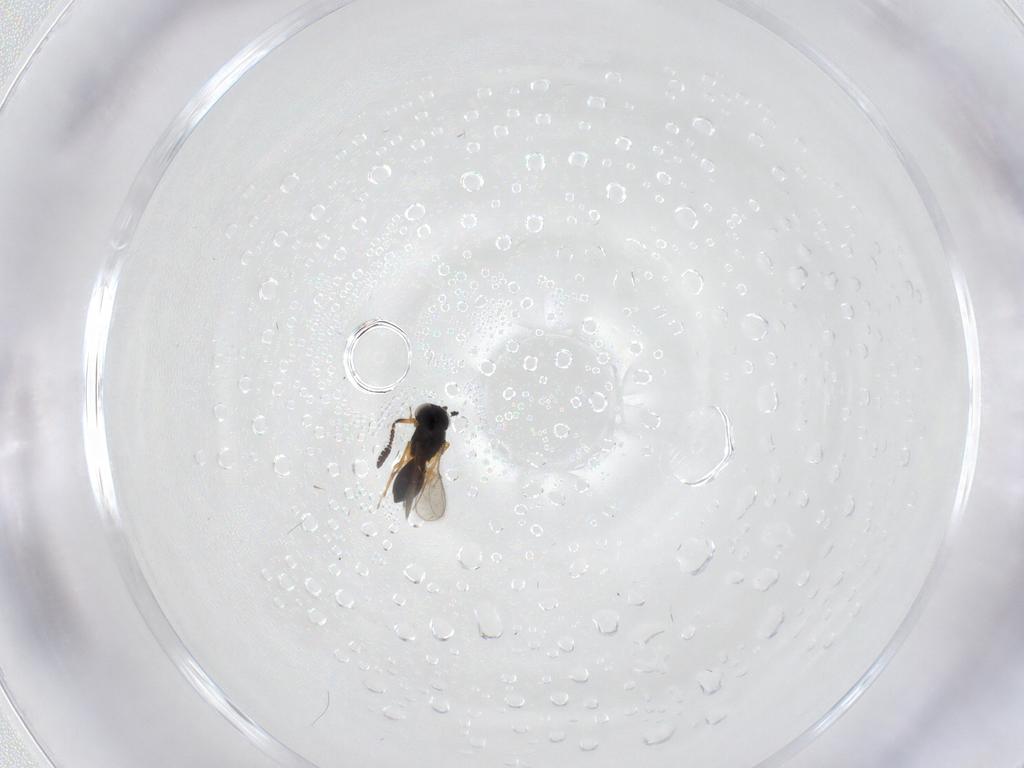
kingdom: Animalia
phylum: Arthropoda
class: Insecta
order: Hymenoptera
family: Scelionidae
